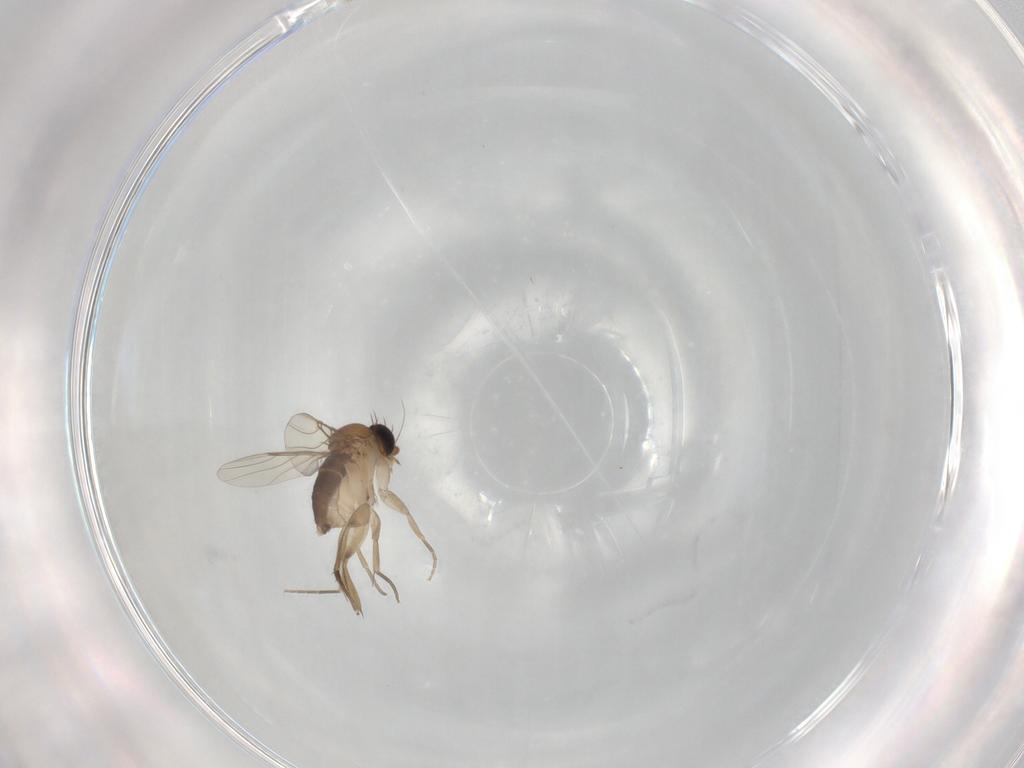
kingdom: Animalia
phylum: Arthropoda
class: Insecta
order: Diptera
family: Phoridae
